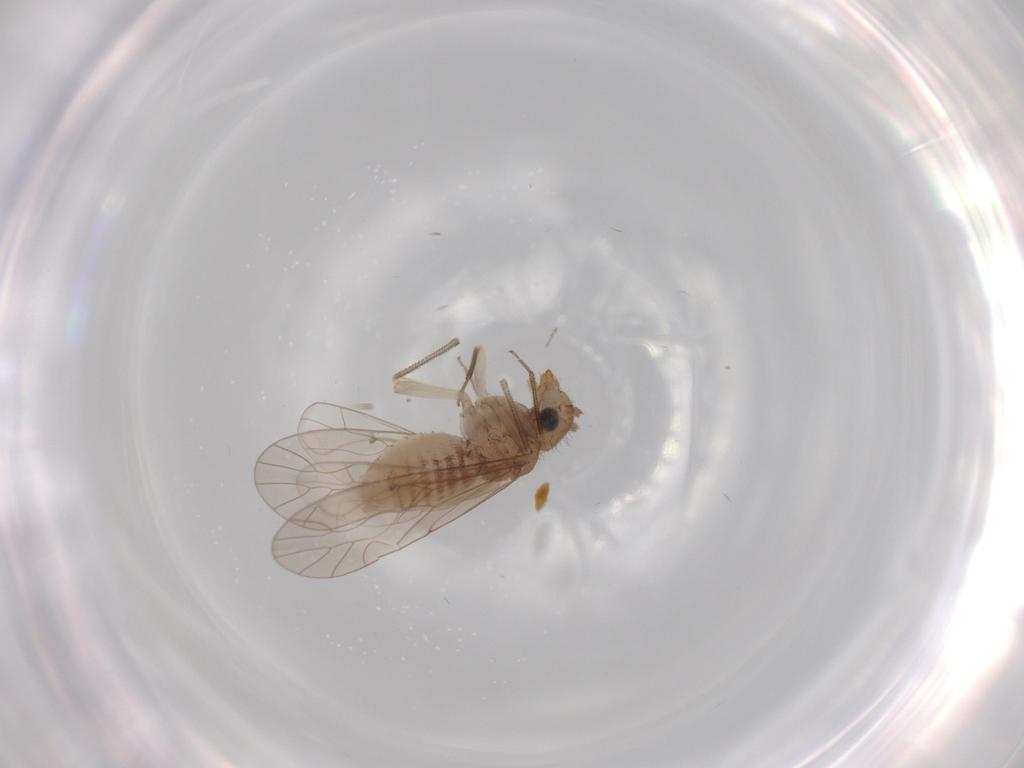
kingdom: Animalia
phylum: Arthropoda
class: Insecta
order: Psocodea
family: Caeciliusidae
